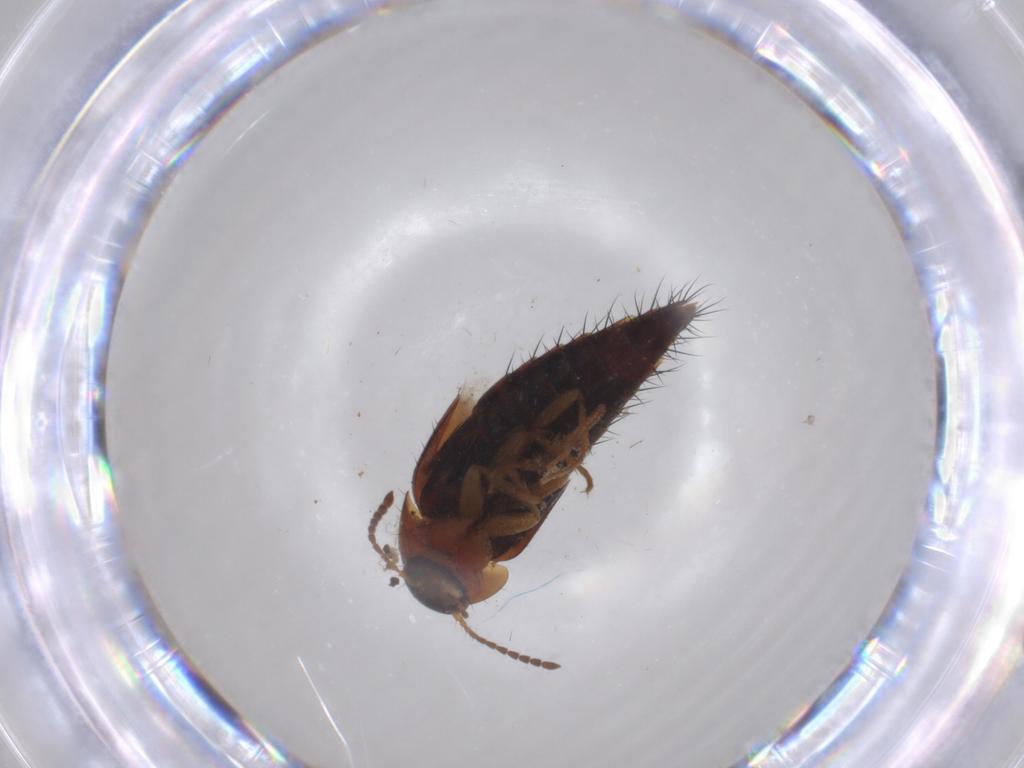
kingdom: Animalia
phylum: Arthropoda
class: Insecta
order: Coleoptera
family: Staphylinidae
